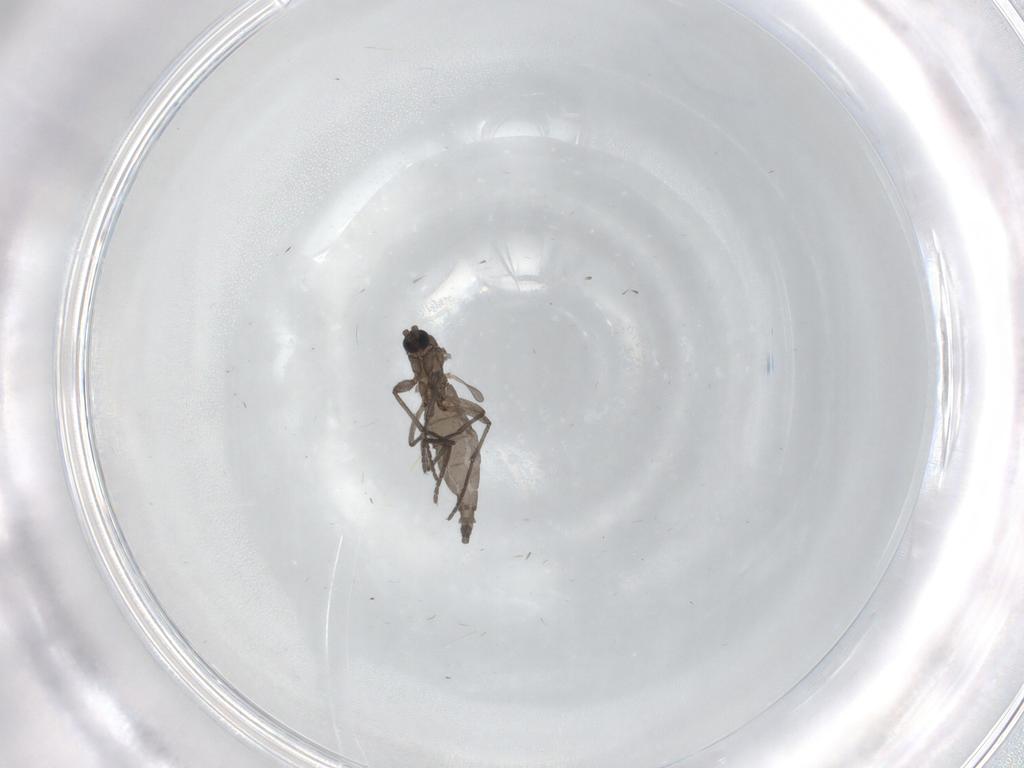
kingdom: Animalia
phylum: Arthropoda
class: Insecta
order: Diptera
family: Sciaridae
